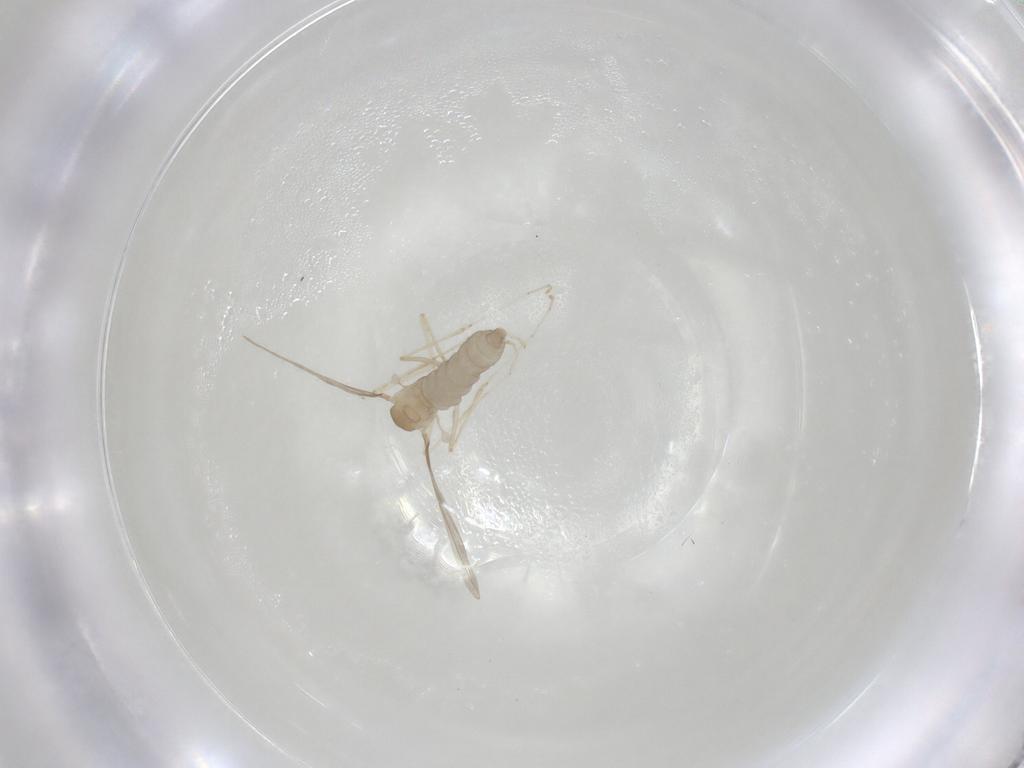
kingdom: Animalia
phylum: Arthropoda
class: Insecta
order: Diptera
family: Cecidomyiidae
